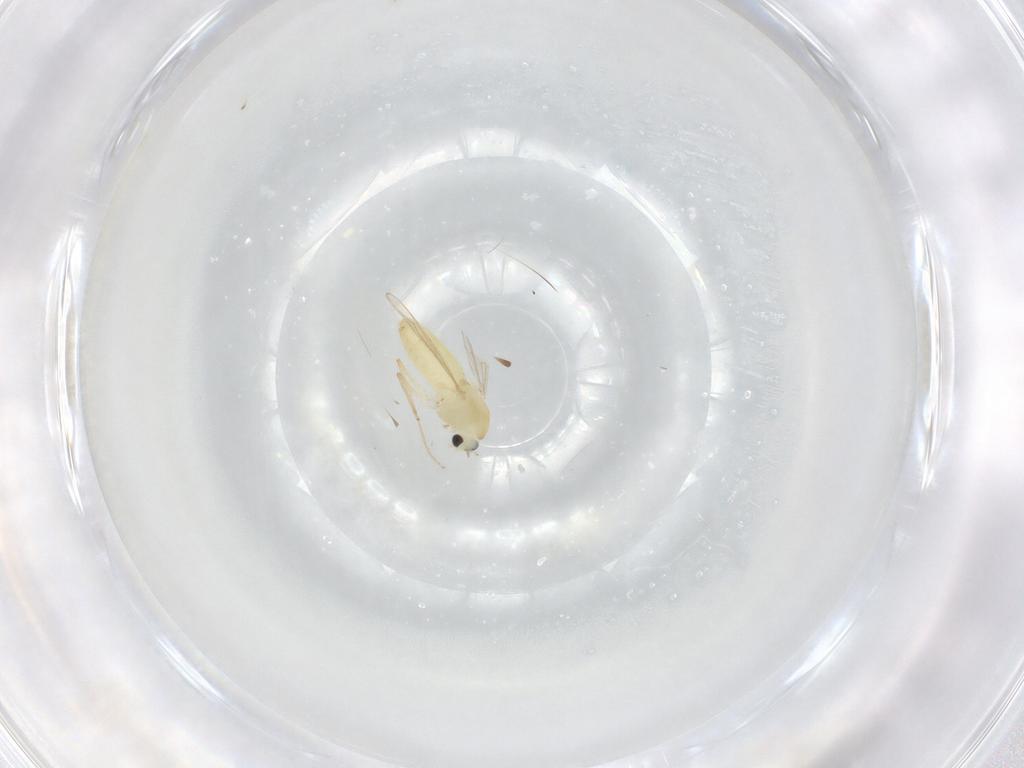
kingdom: Animalia
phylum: Arthropoda
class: Insecta
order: Diptera
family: Chironomidae
